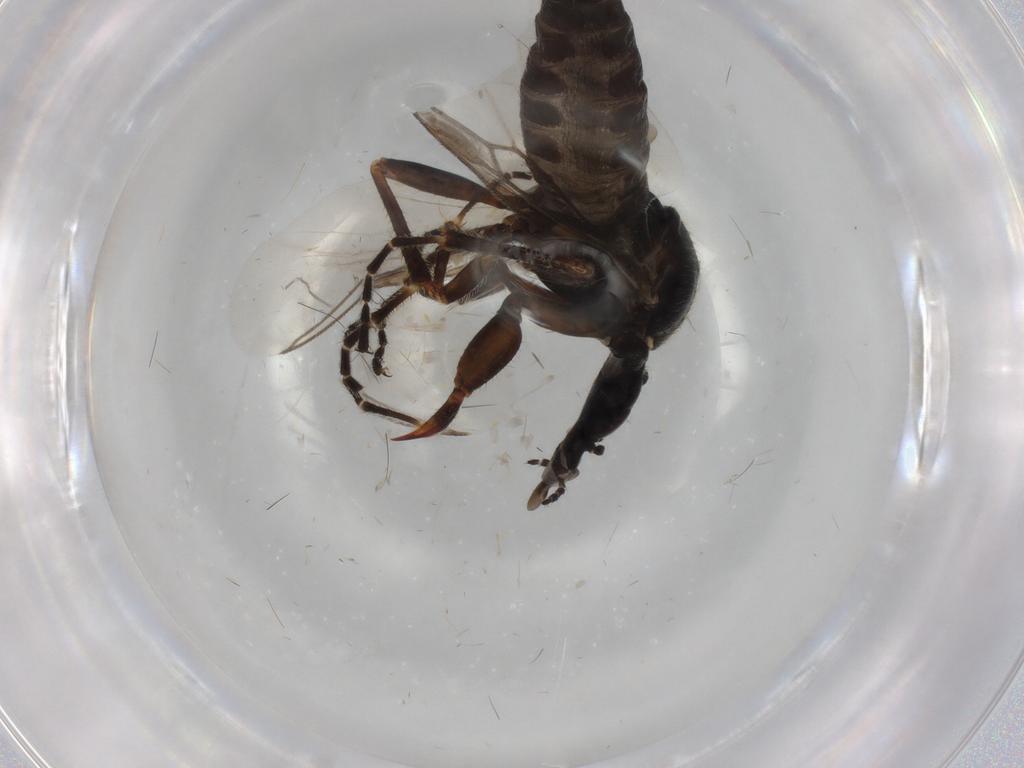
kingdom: Animalia
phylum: Arthropoda
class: Insecta
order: Diptera
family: Bibionidae
